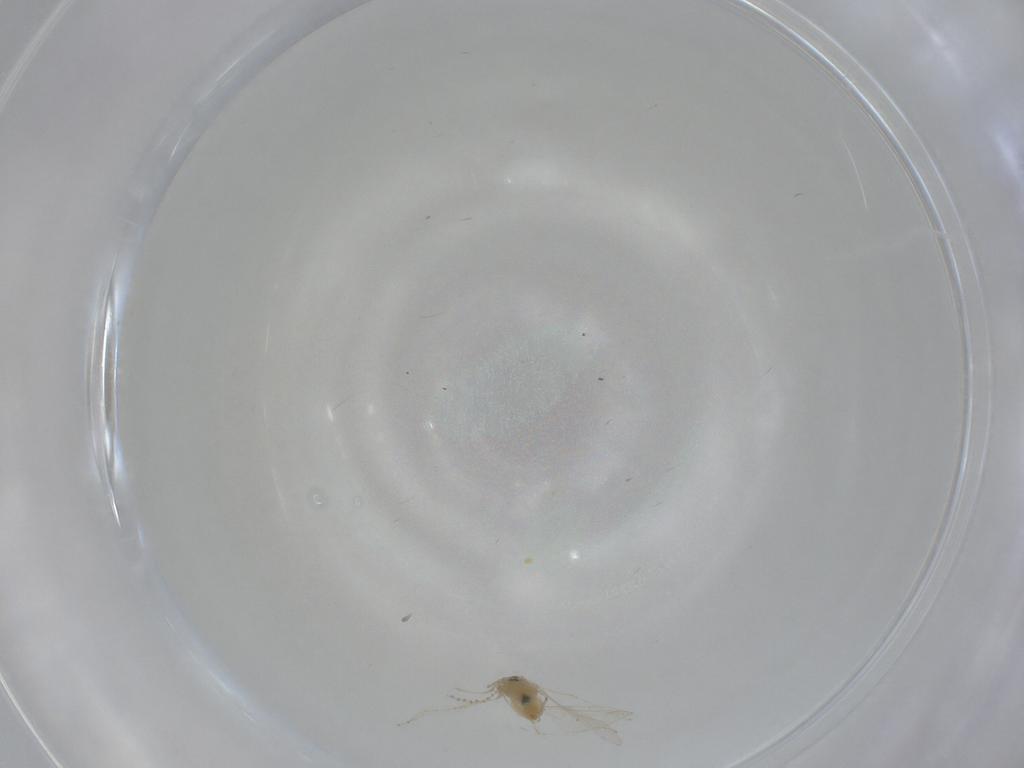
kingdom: Animalia
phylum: Arthropoda
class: Insecta
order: Diptera
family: Cecidomyiidae
